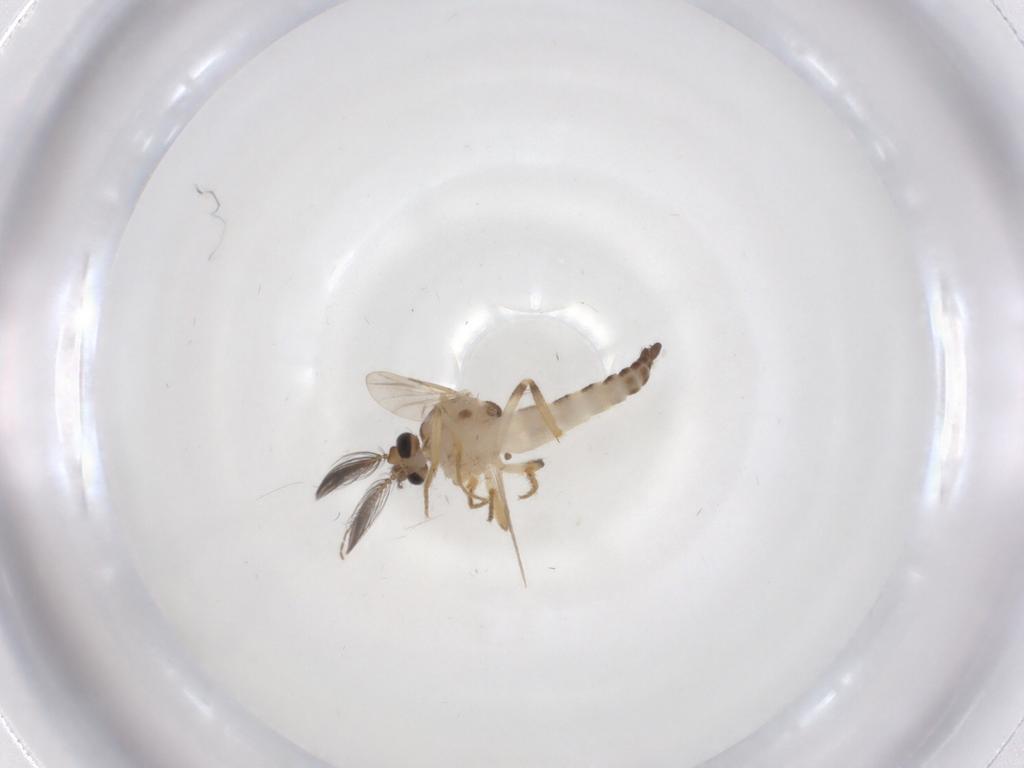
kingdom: Animalia
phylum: Arthropoda
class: Insecta
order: Diptera
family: Ceratopogonidae
